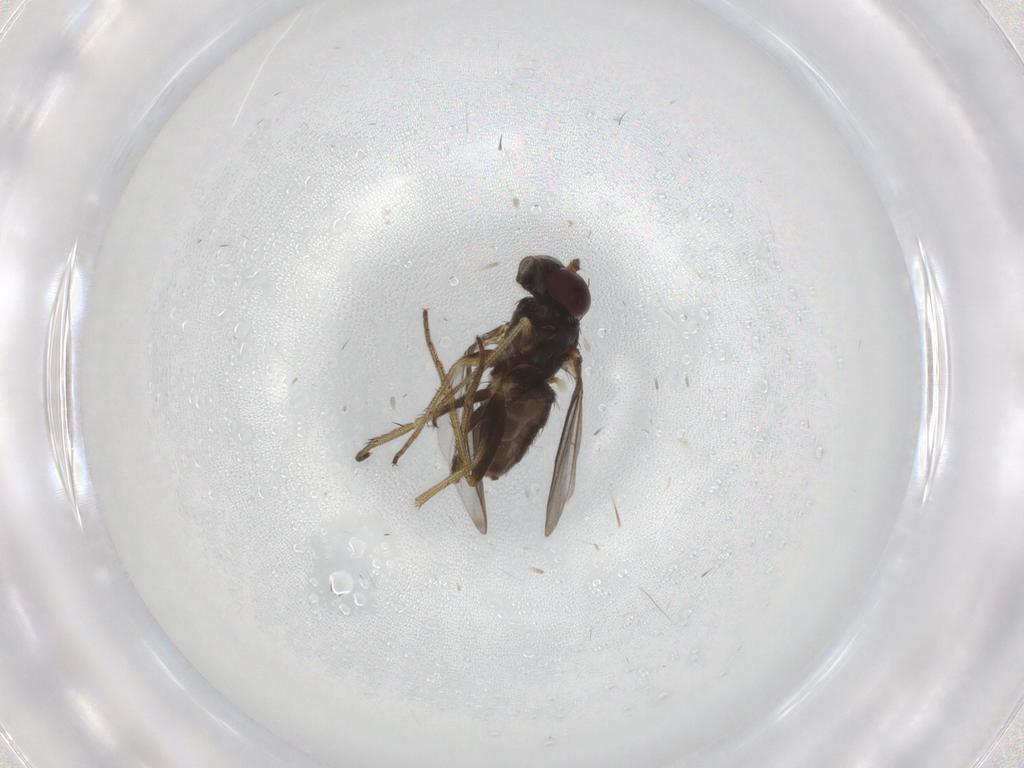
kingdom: Animalia
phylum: Arthropoda
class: Insecta
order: Diptera
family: Dolichopodidae
